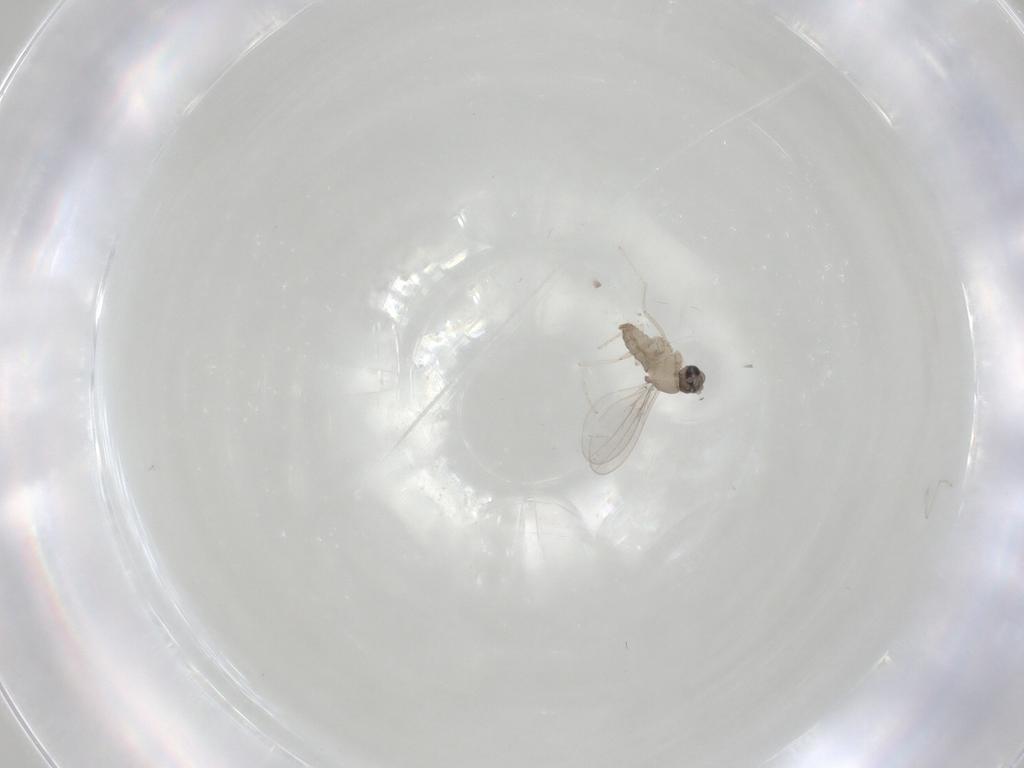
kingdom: Animalia
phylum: Arthropoda
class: Insecta
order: Diptera
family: Cecidomyiidae
